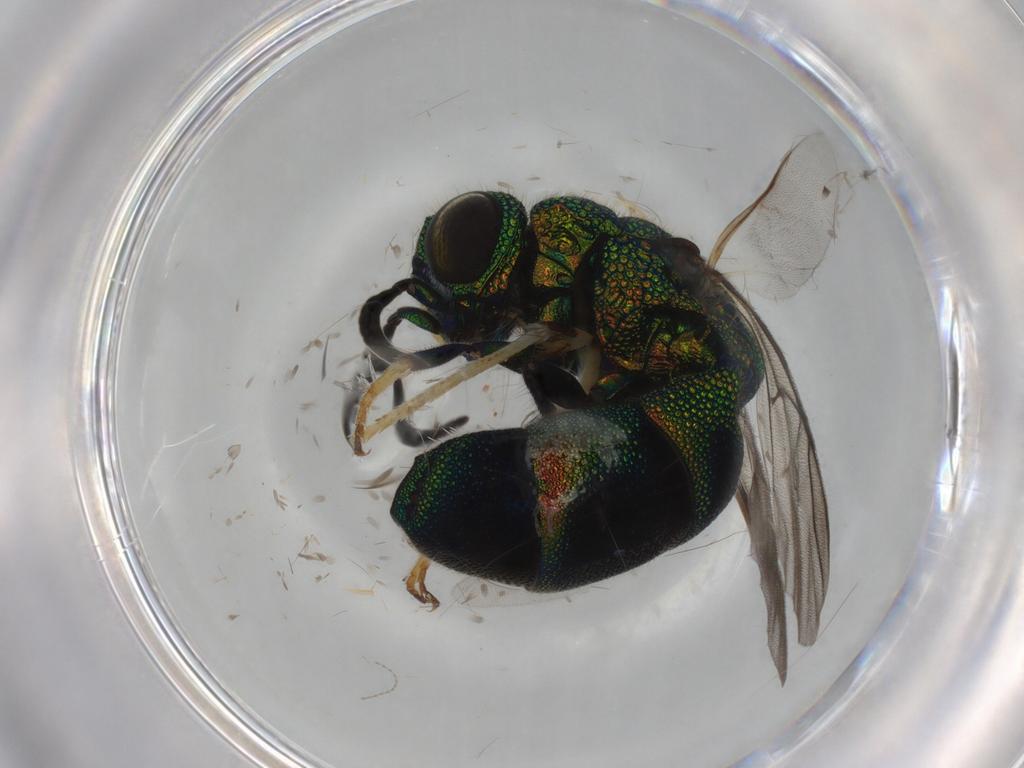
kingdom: Animalia
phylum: Arthropoda
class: Insecta
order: Hymenoptera
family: Chrysididae
